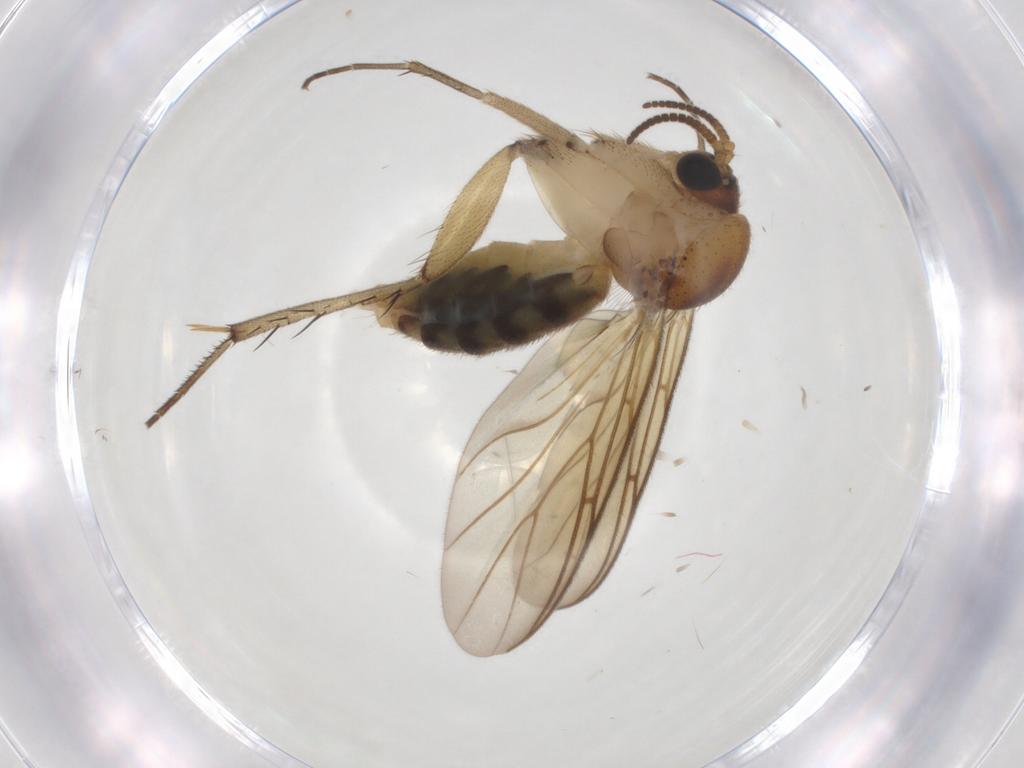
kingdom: Animalia
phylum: Arthropoda
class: Insecta
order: Diptera
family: Mycetophilidae
